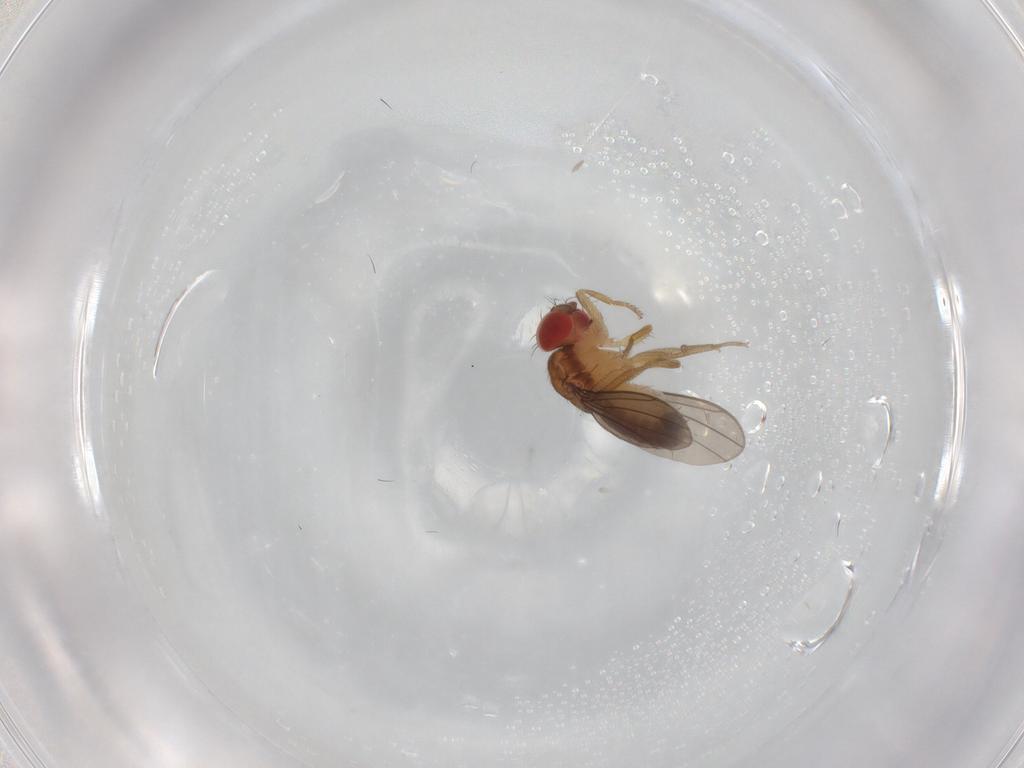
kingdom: Animalia
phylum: Arthropoda
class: Insecta
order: Diptera
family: Drosophilidae
